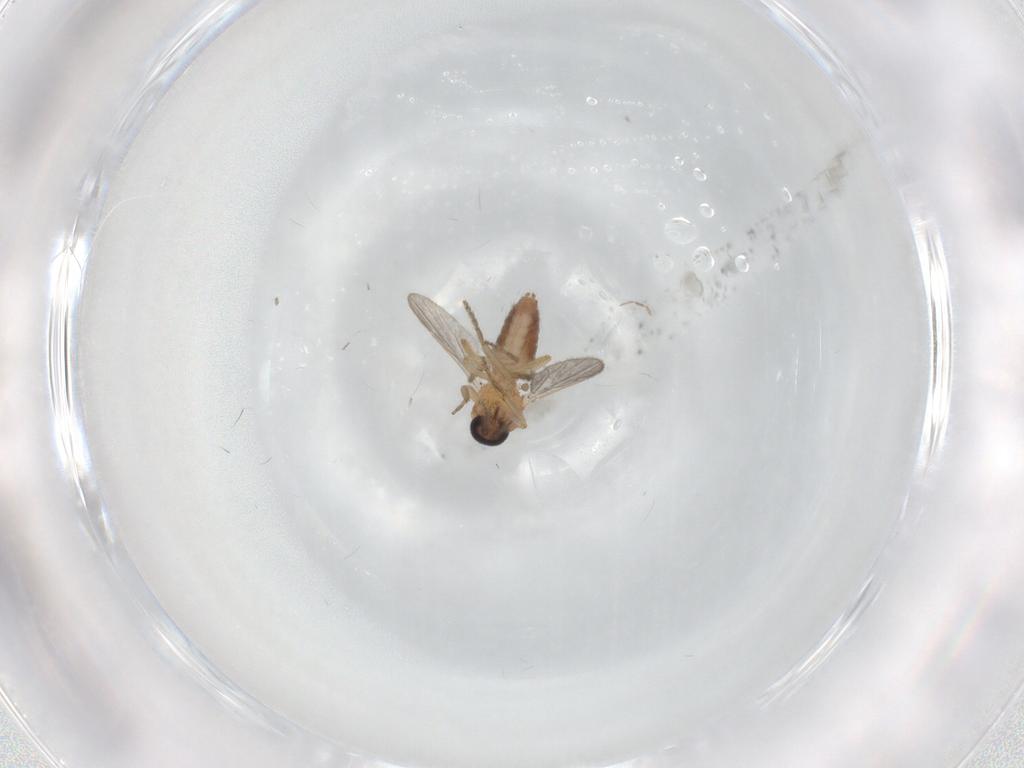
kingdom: Animalia
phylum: Arthropoda
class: Insecta
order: Diptera
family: Ceratopogonidae
